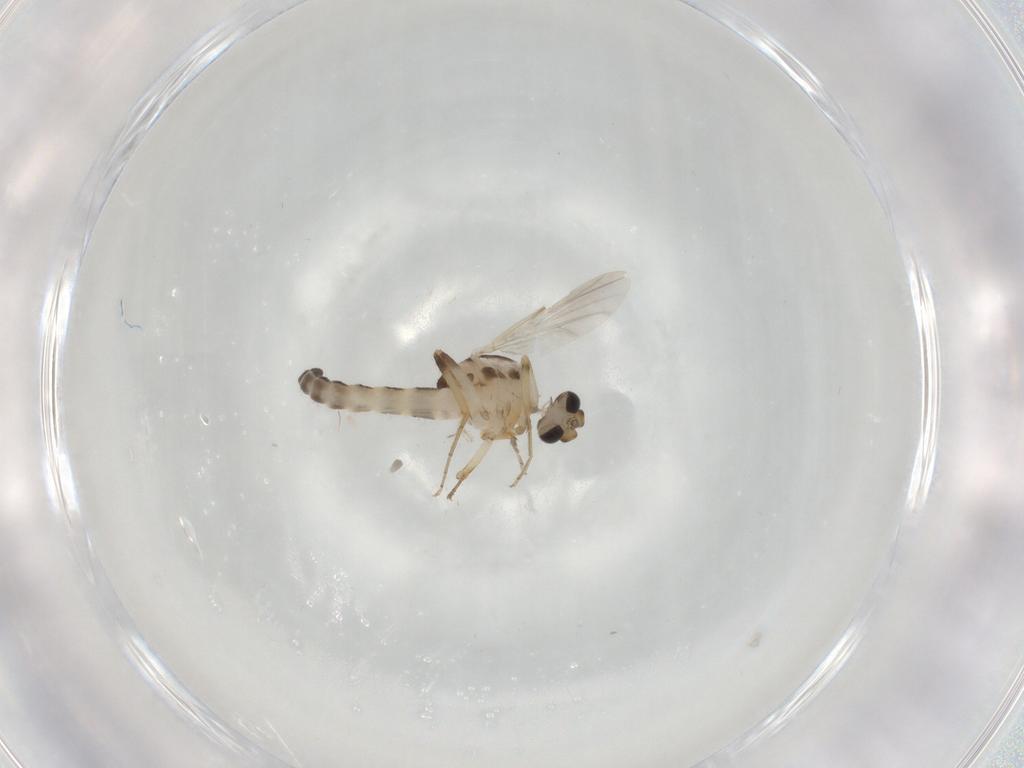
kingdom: Animalia
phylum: Arthropoda
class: Insecta
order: Diptera
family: Ceratopogonidae
